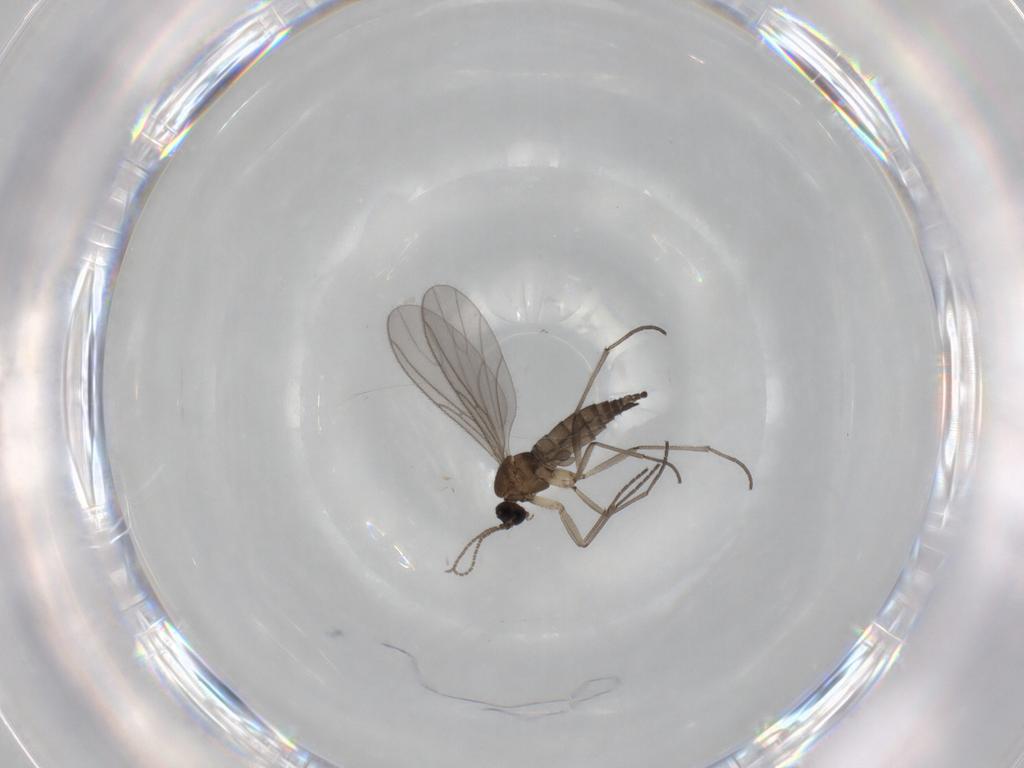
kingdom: Animalia
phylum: Arthropoda
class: Insecta
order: Diptera
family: Sciaridae
